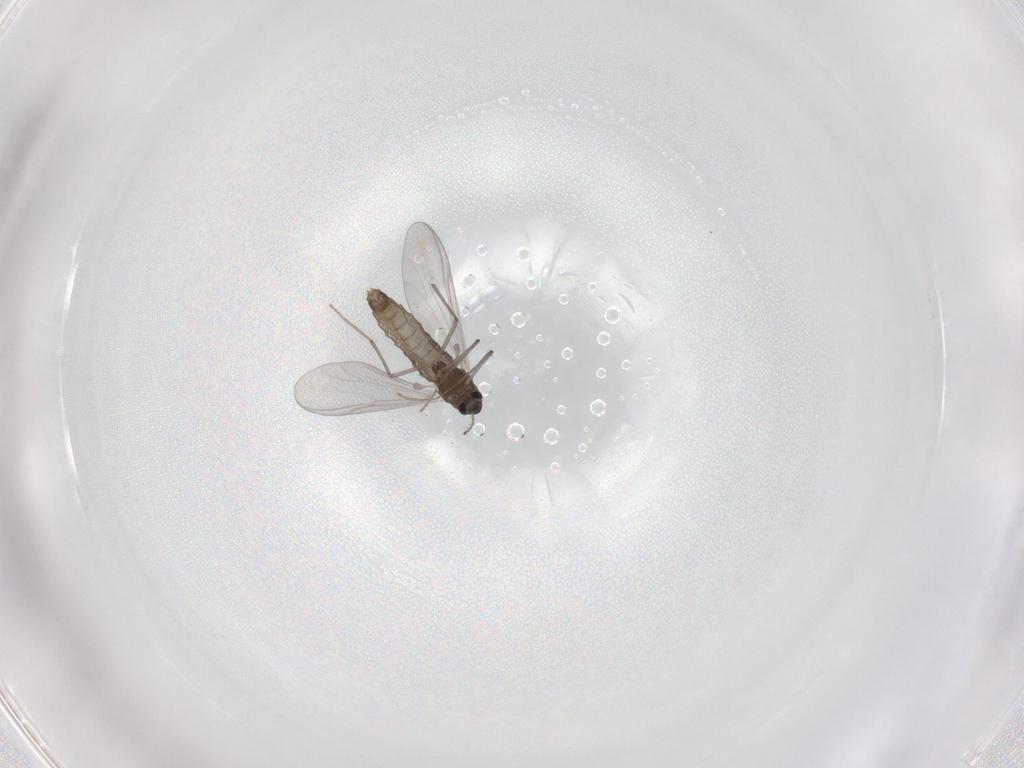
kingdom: Animalia
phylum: Arthropoda
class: Insecta
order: Diptera
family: Chironomidae
